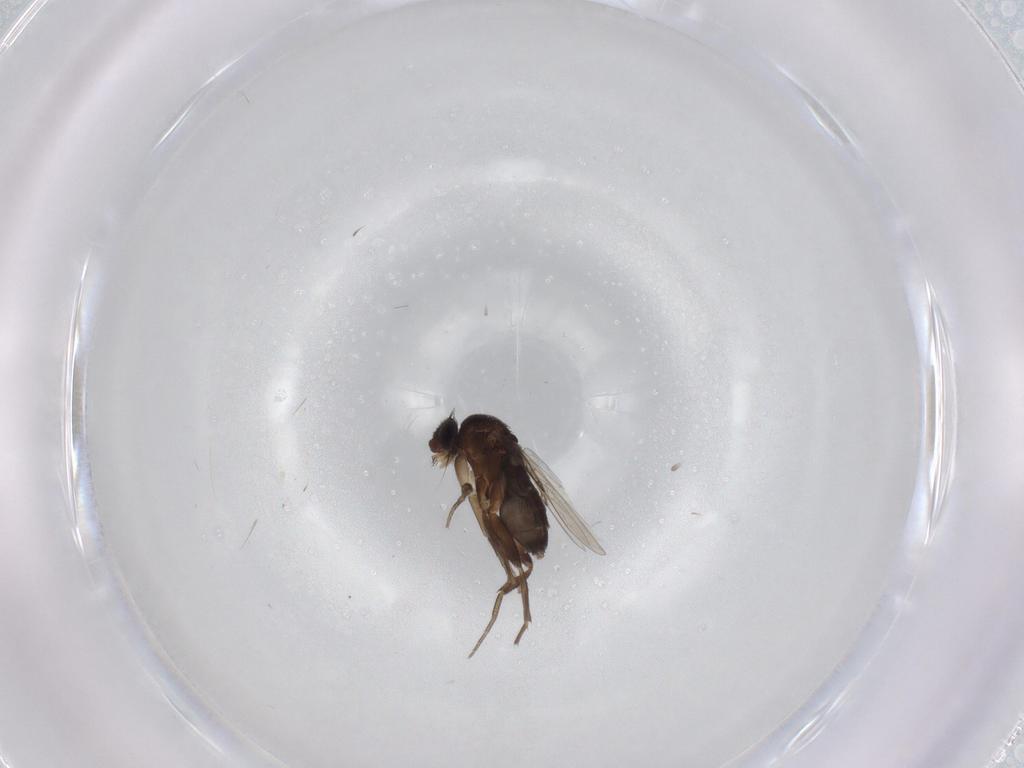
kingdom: Animalia
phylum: Arthropoda
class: Insecta
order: Diptera
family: Phoridae
